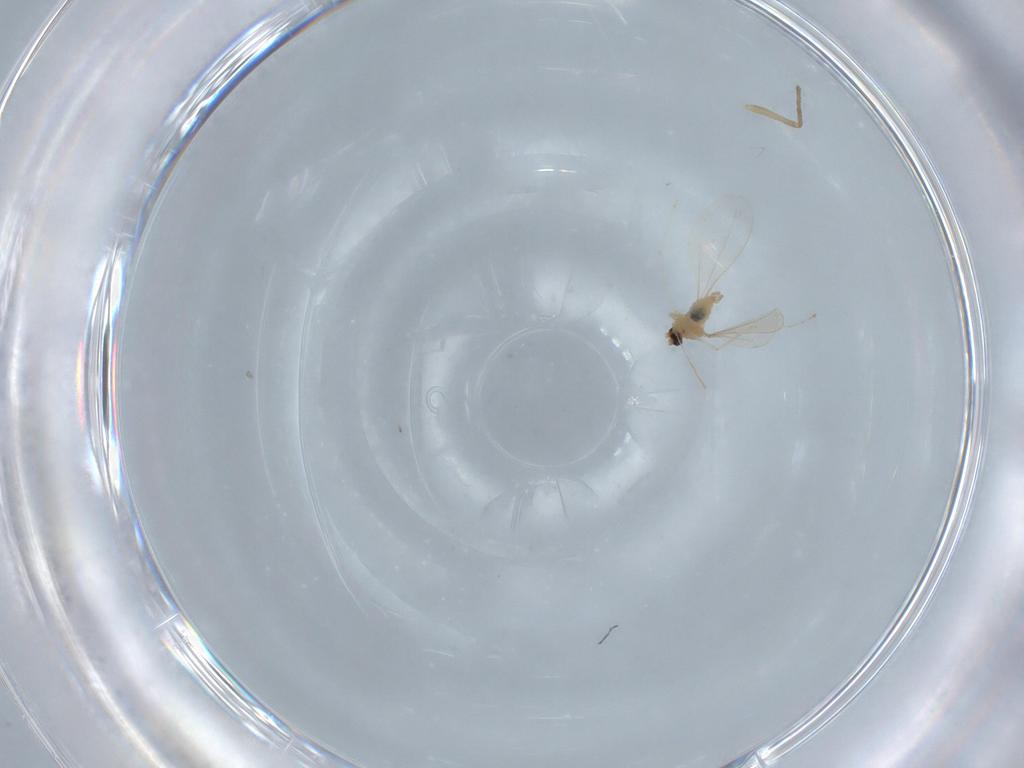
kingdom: Animalia
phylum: Arthropoda
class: Insecta
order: Diptera
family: Cecidomyiidae
